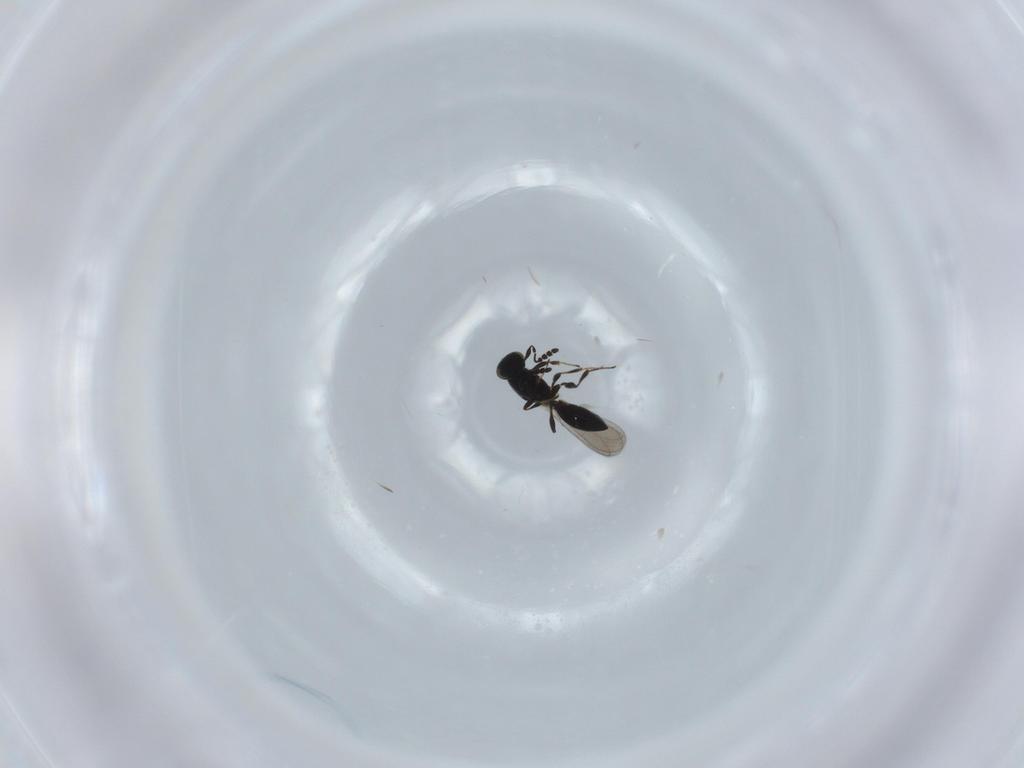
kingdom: Animalia
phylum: Arthropoda
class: Insecta
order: Hymenoptera
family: Platygastridae
